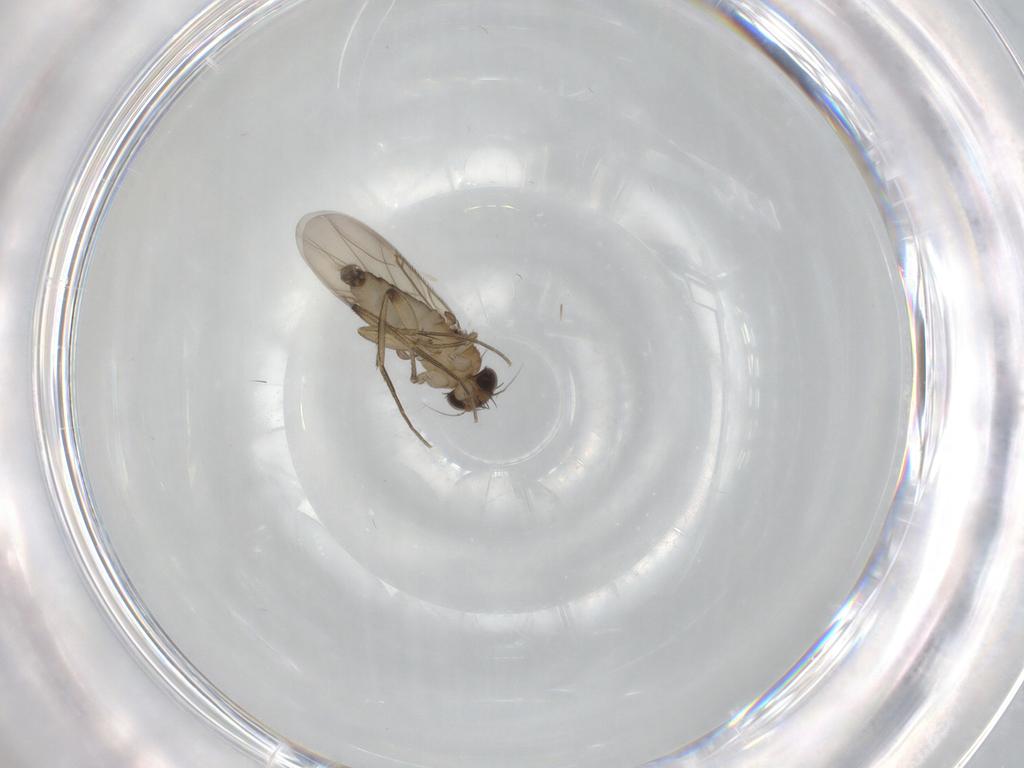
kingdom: Animalia
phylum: Arthropoda
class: Insecta
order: Diptera
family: Phoridae
